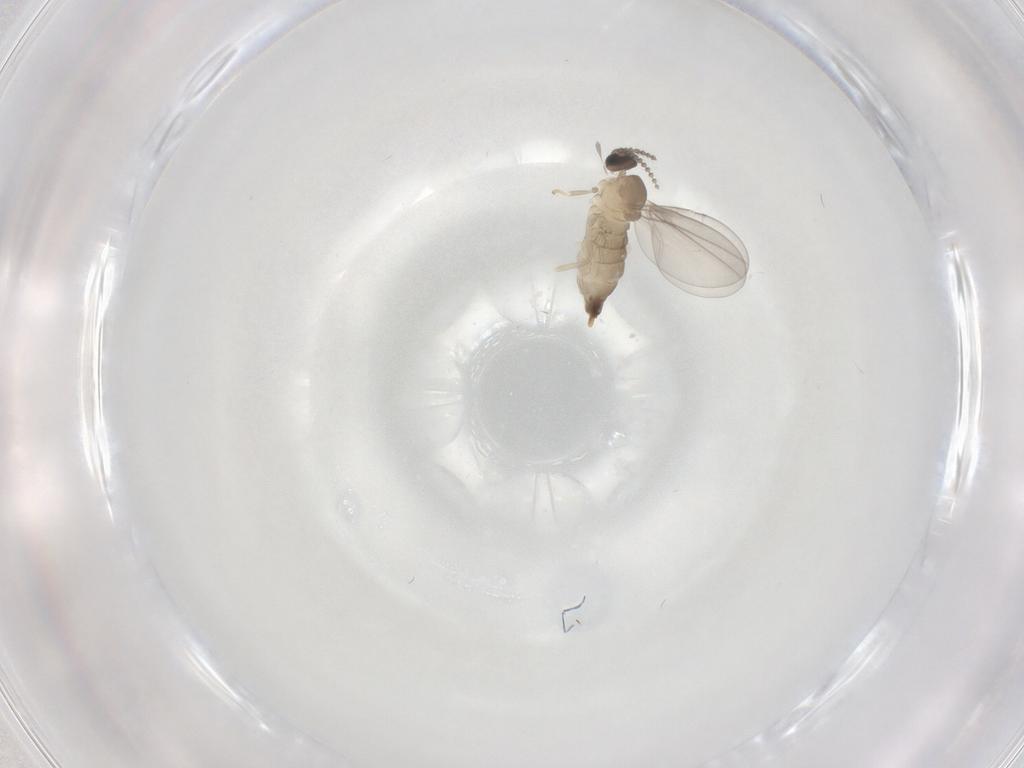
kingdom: Animalia
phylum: Arthropoda
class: Insecta
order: Diptera
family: Cecidomyiidae
